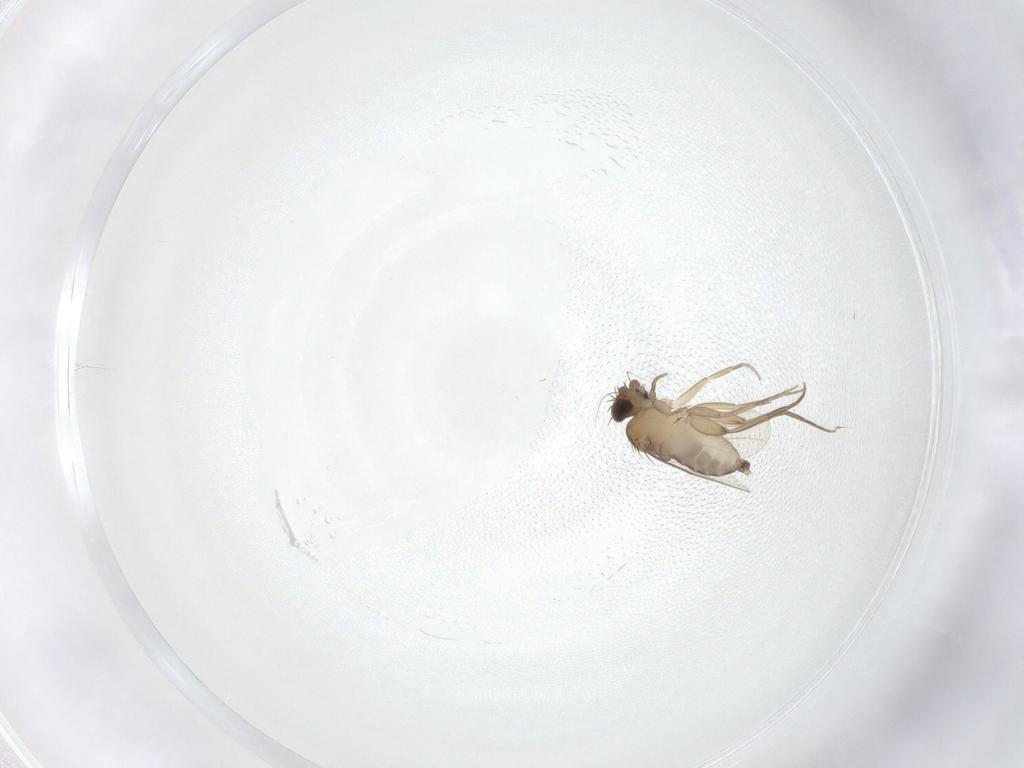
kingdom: Animalia
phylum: Arthropoda
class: Insecta
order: Diptera
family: Phoridae
